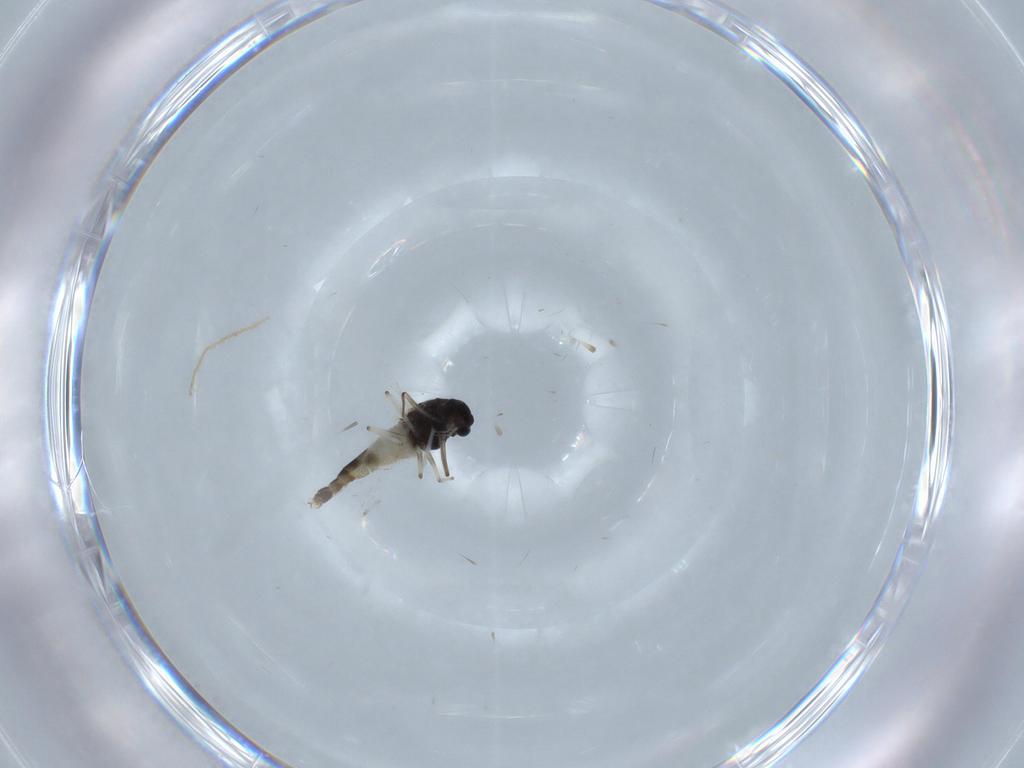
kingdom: Animalia
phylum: Arthropoda
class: Insecta
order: Diptera
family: Chironomidae
